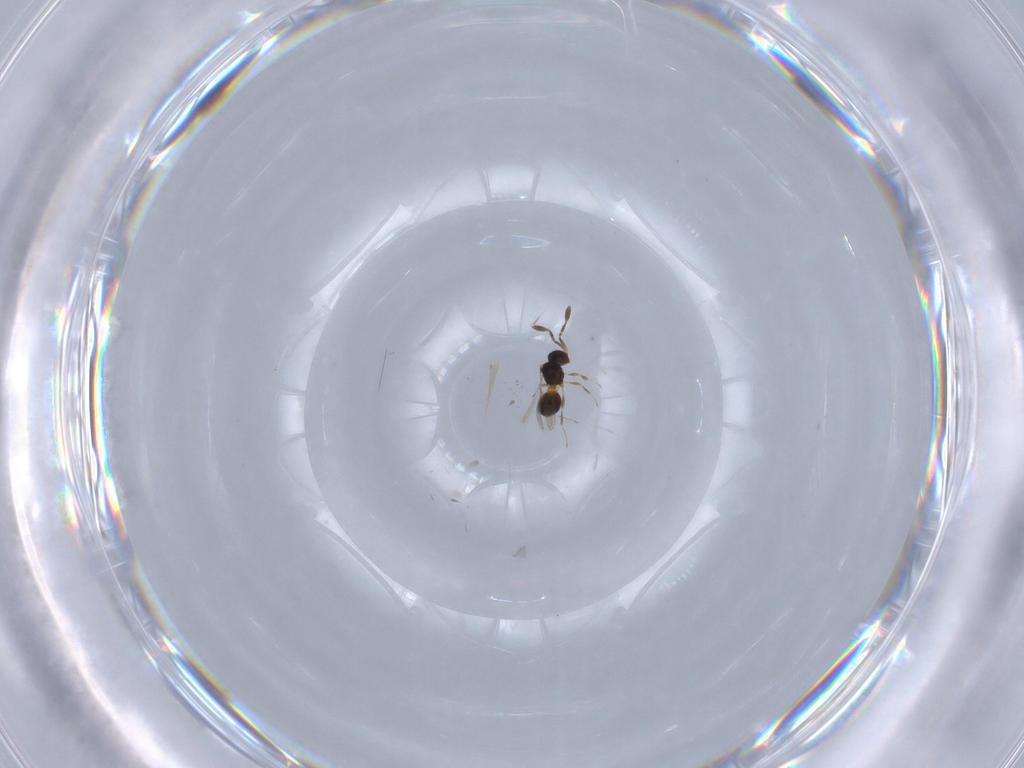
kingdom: Animalia
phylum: Arthropoda
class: Insecta
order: Hymenoptera
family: Mymaridae
